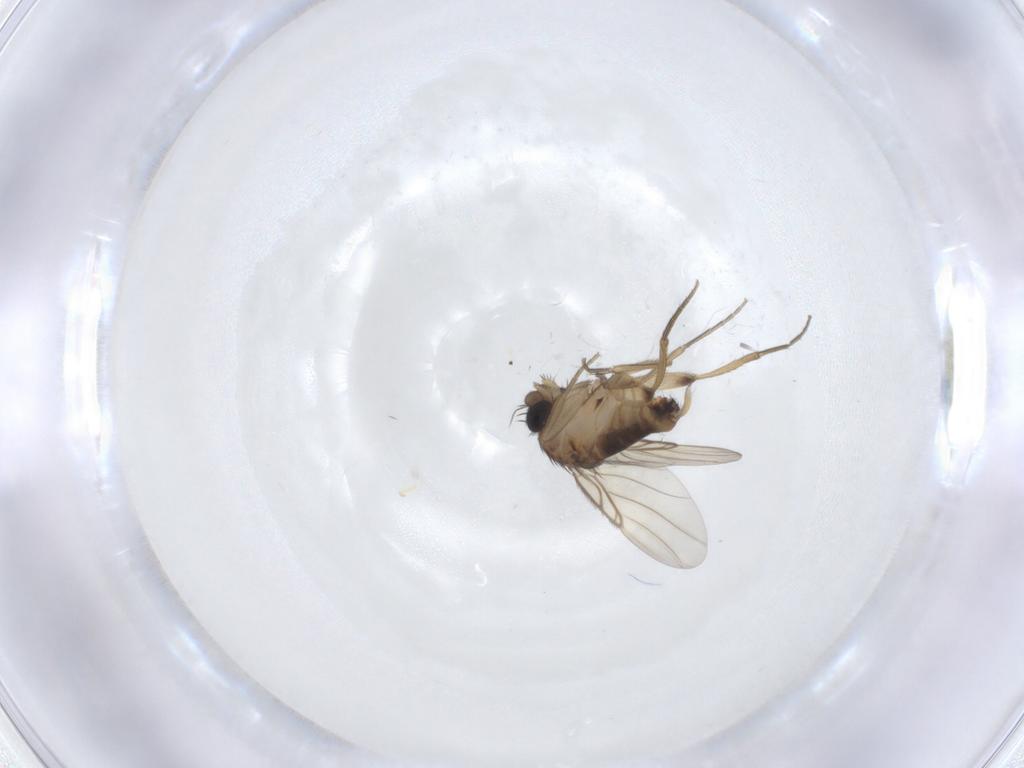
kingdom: Animalia
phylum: Arthropoda
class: Insecta
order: Diptera
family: Phoridae
